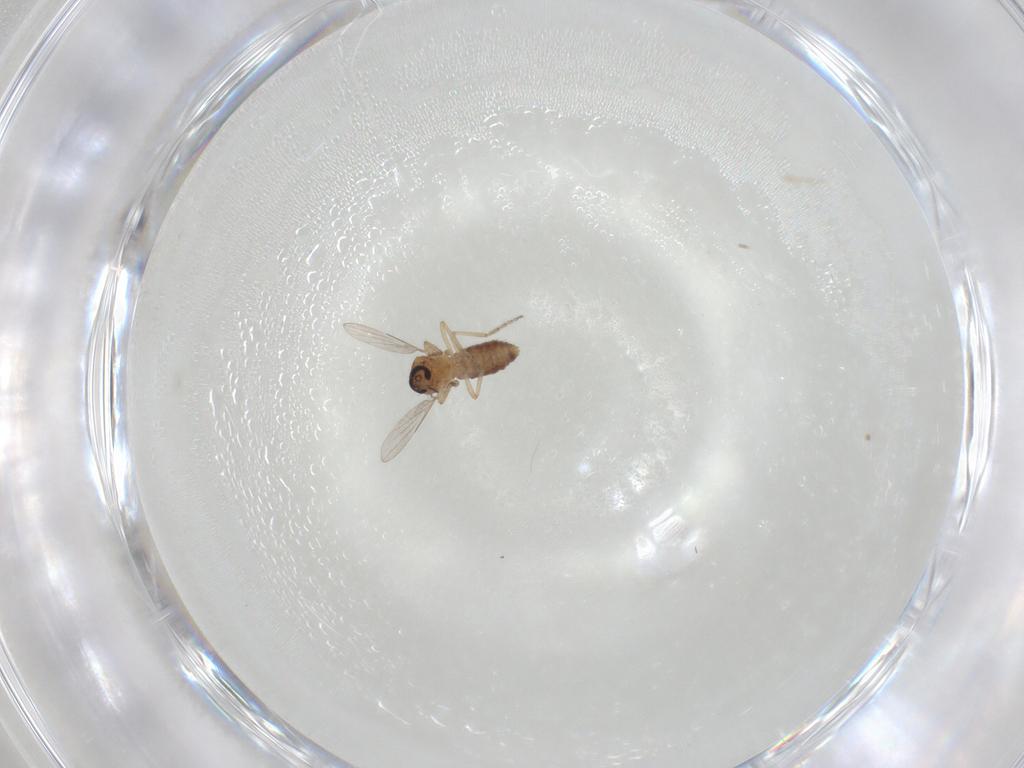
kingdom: Animalia
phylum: Arthropoda
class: Insecta
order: Diptera
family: Ceratopogonidae
